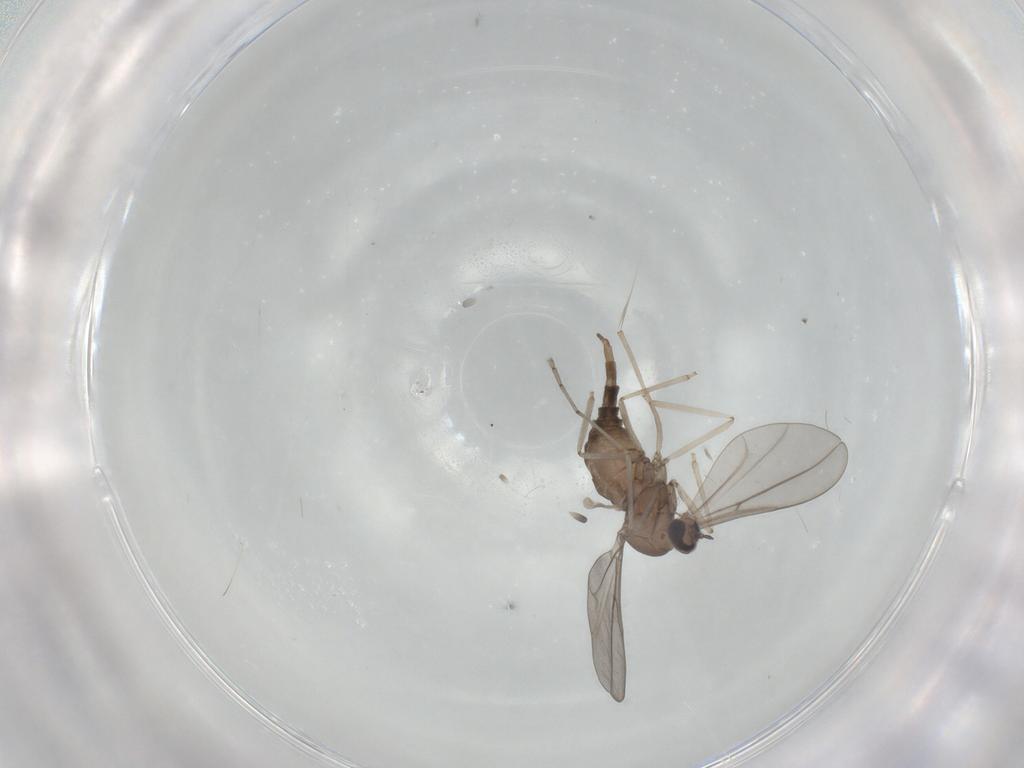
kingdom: Animalia
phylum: Arthropoda
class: Insecta
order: Diptera
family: Cecidomyiidae
